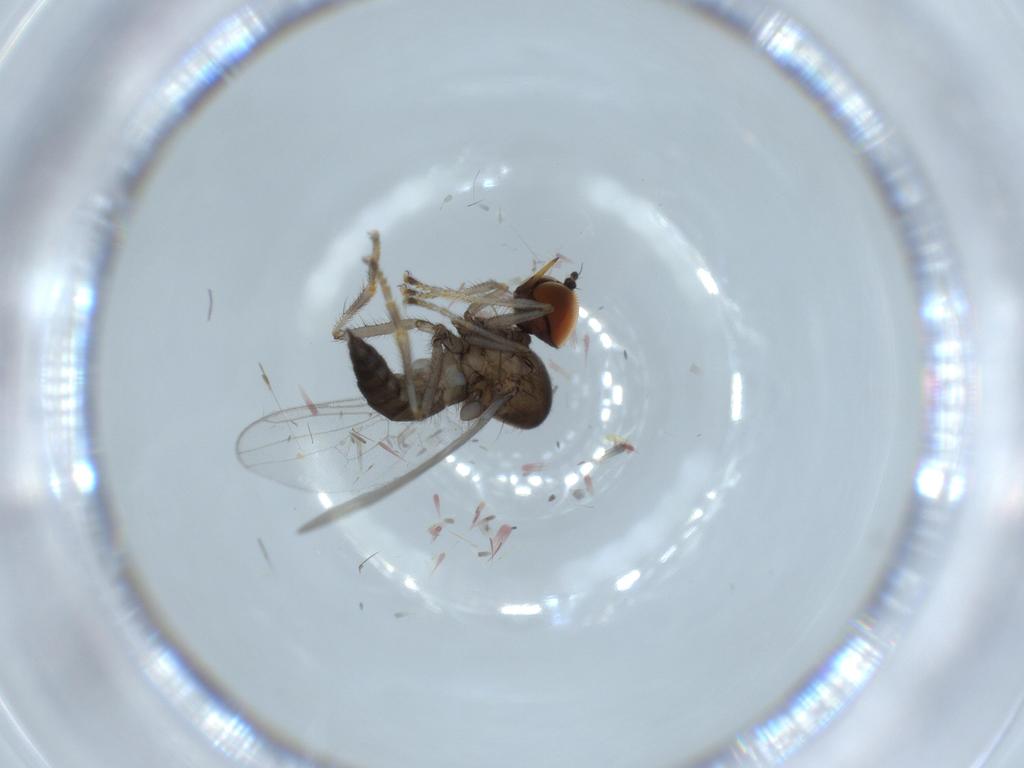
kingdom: Animalia
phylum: Arthropoda
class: Insecta
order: Diptera
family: Hybotidae
